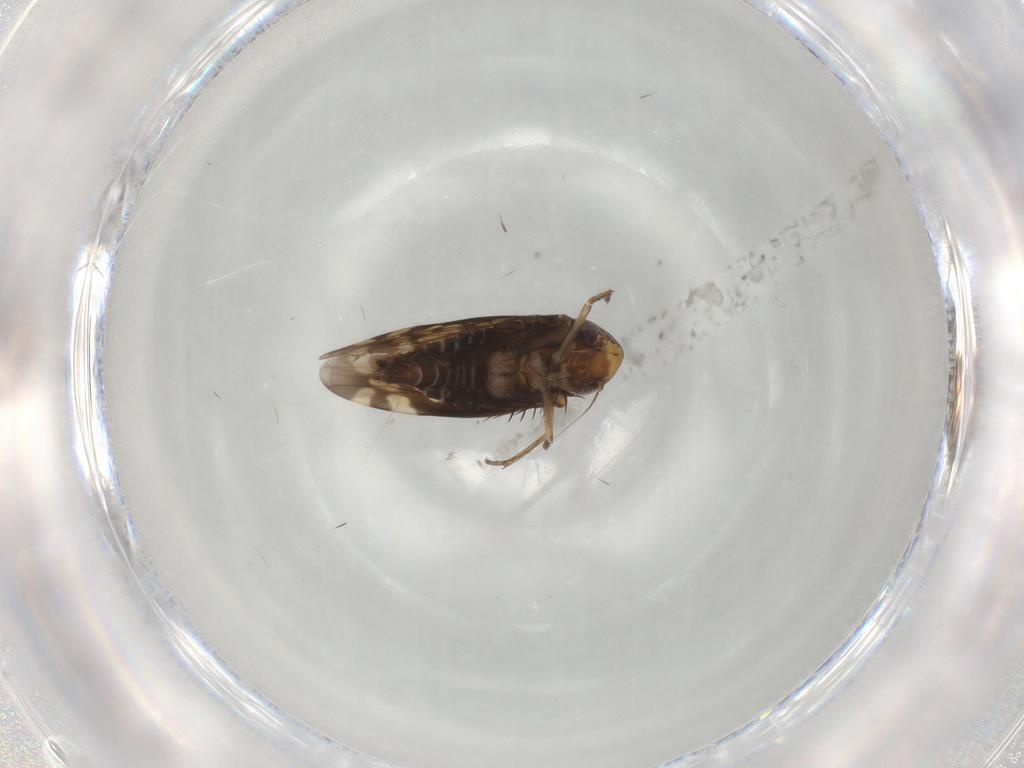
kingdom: Animalia
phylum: Arthropoda
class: Insecta
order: Hemiptera
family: Cicadellidae
